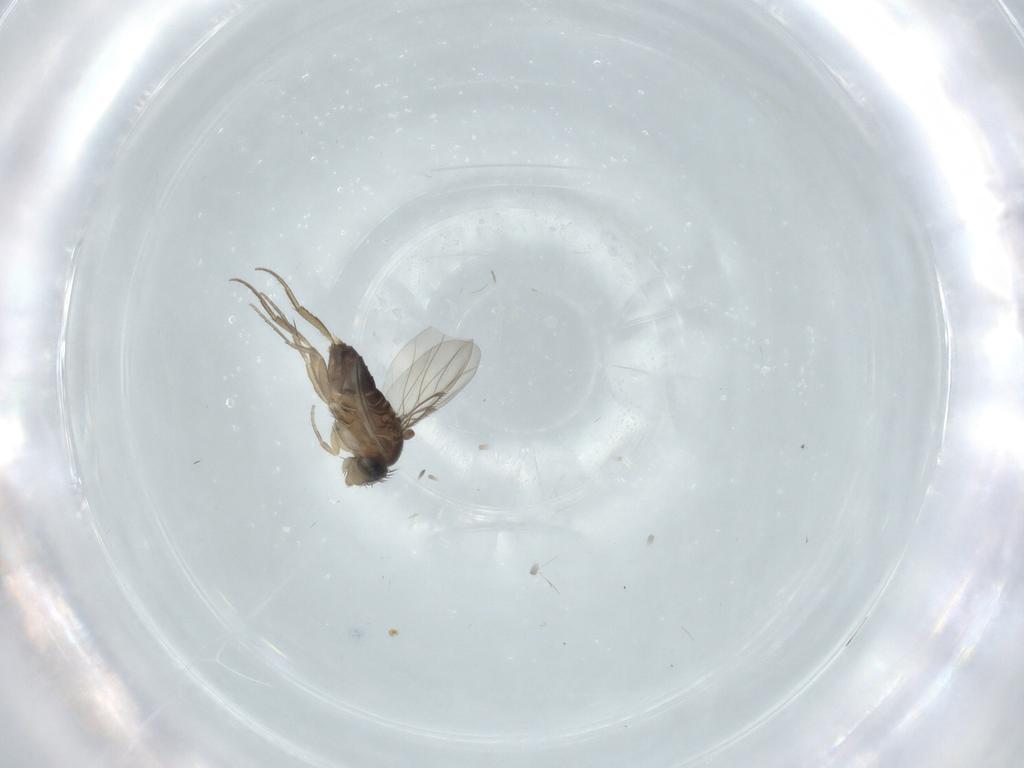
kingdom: Animalia
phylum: Arthropoda
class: Insecta
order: Diptera
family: Phoridae
